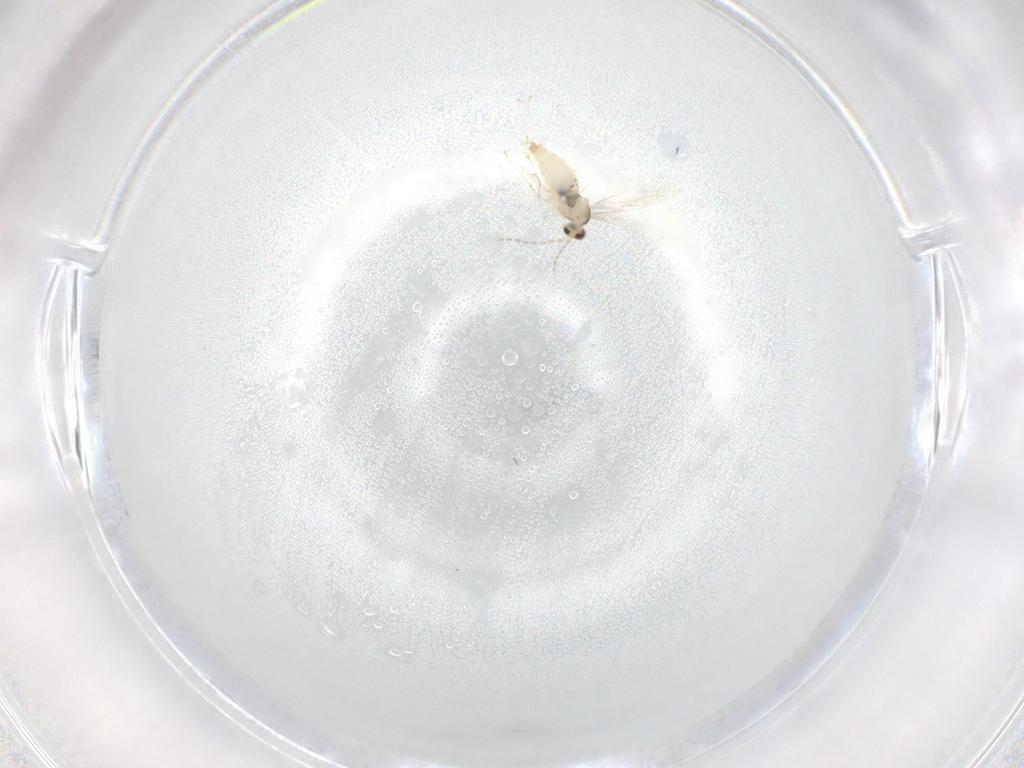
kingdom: Animalia
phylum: Arthropoda
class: Insecta
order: Diptera
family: Cecidomyiidae
